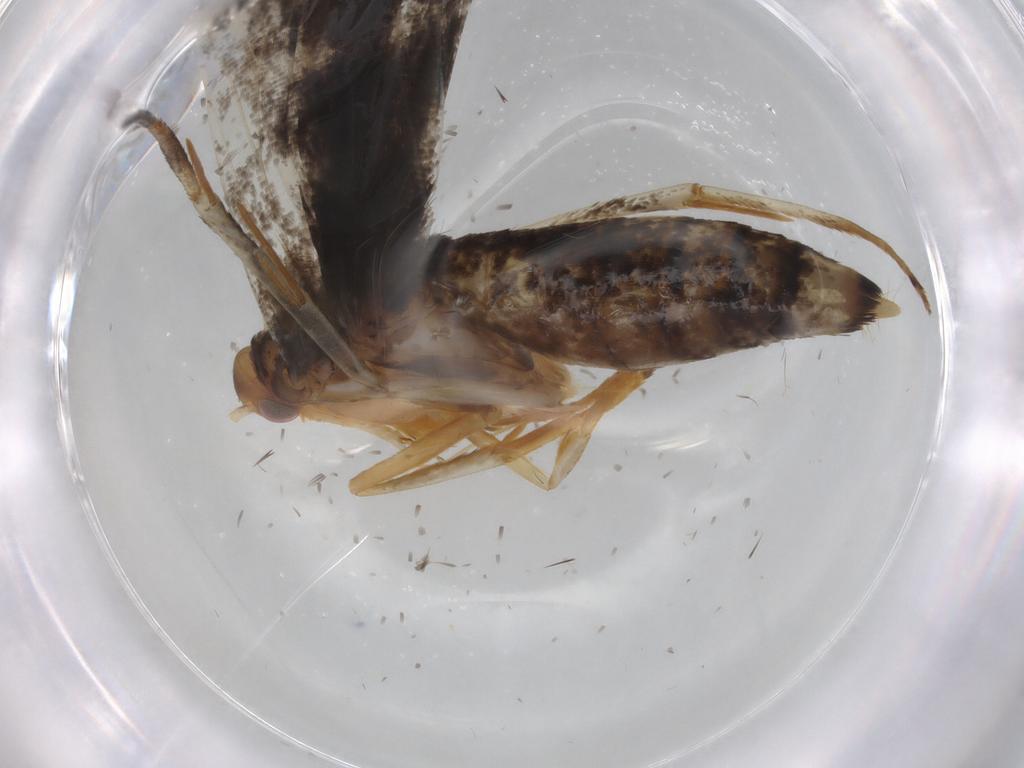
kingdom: Animalia
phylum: Arthropoda
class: Insecta
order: Lepidoptera
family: Oecophoridae
